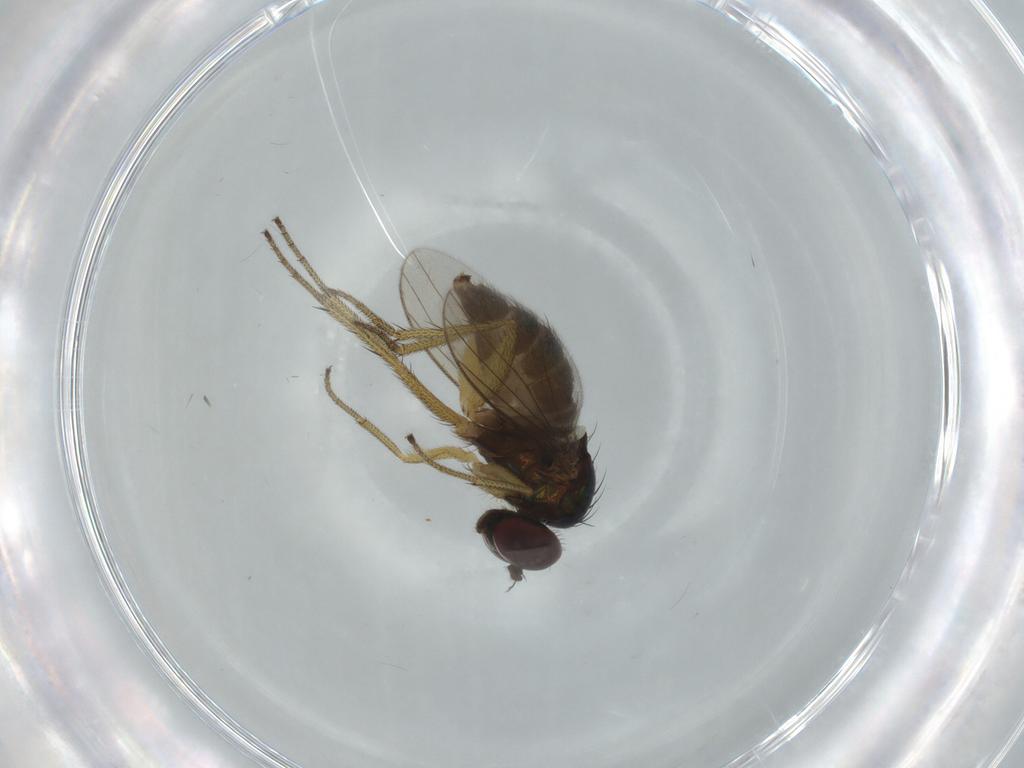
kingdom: Animalia
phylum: Arthropoda
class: Insecta
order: Diptera
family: Dolichopodidae
